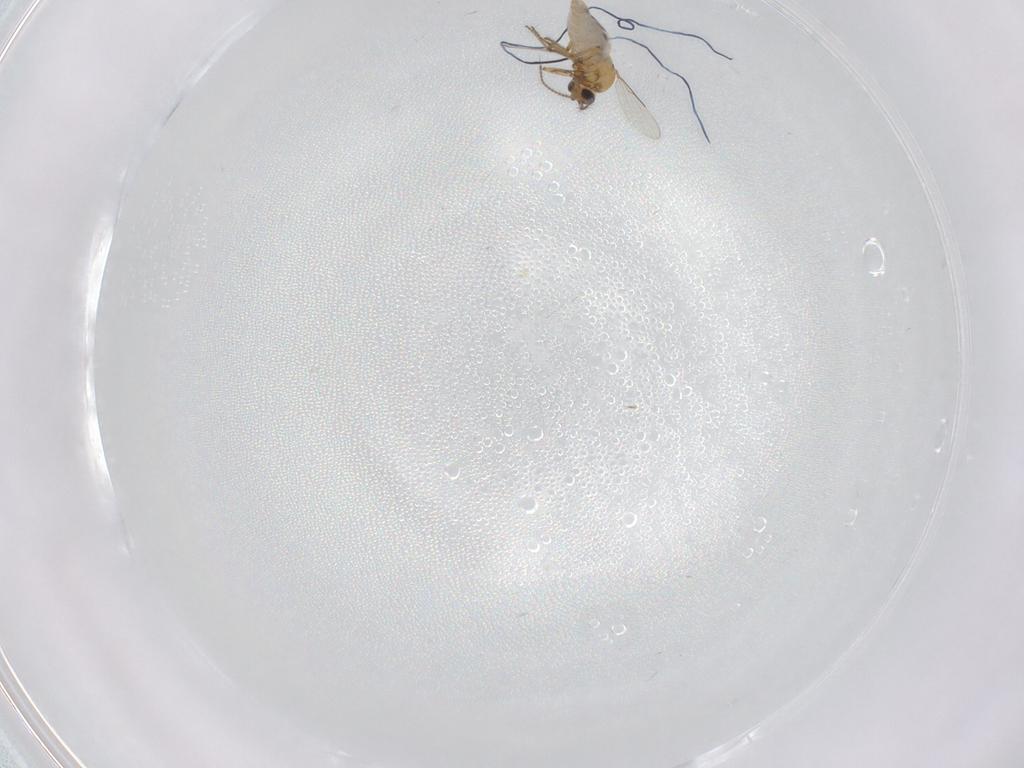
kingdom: Animalia
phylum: Arthropoda
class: Insecta
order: Diptera
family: Ceratopogonidae
